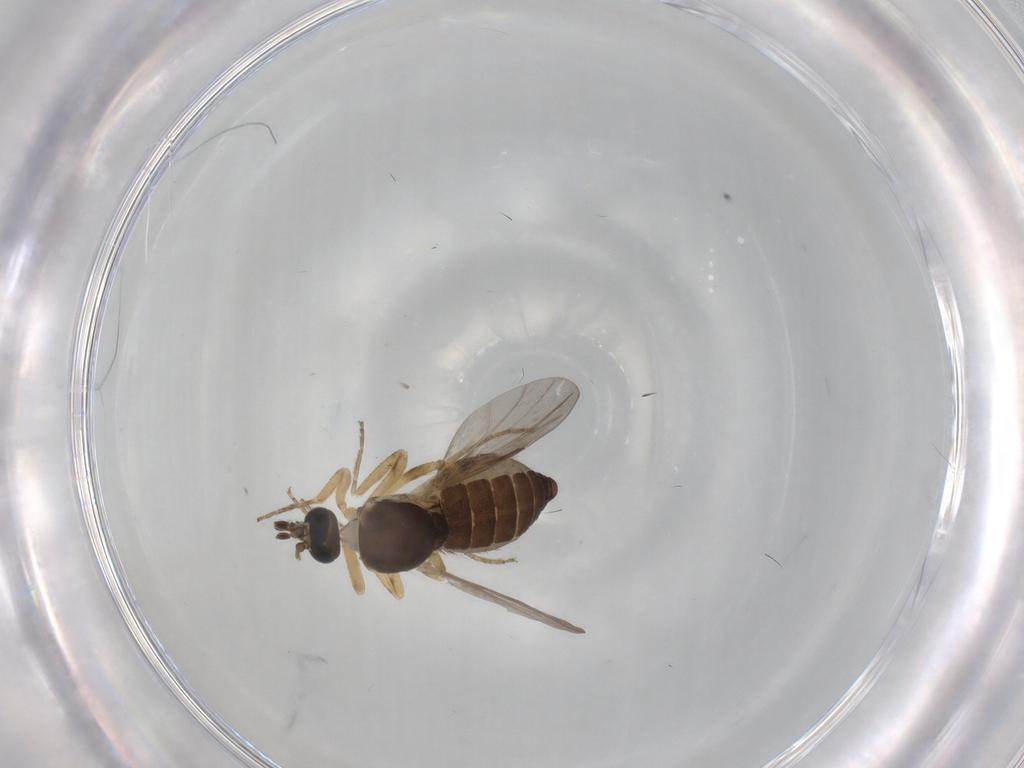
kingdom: Animalia
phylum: Arthropoda
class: Insecta
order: Diptera
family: Ceratopogonidae
